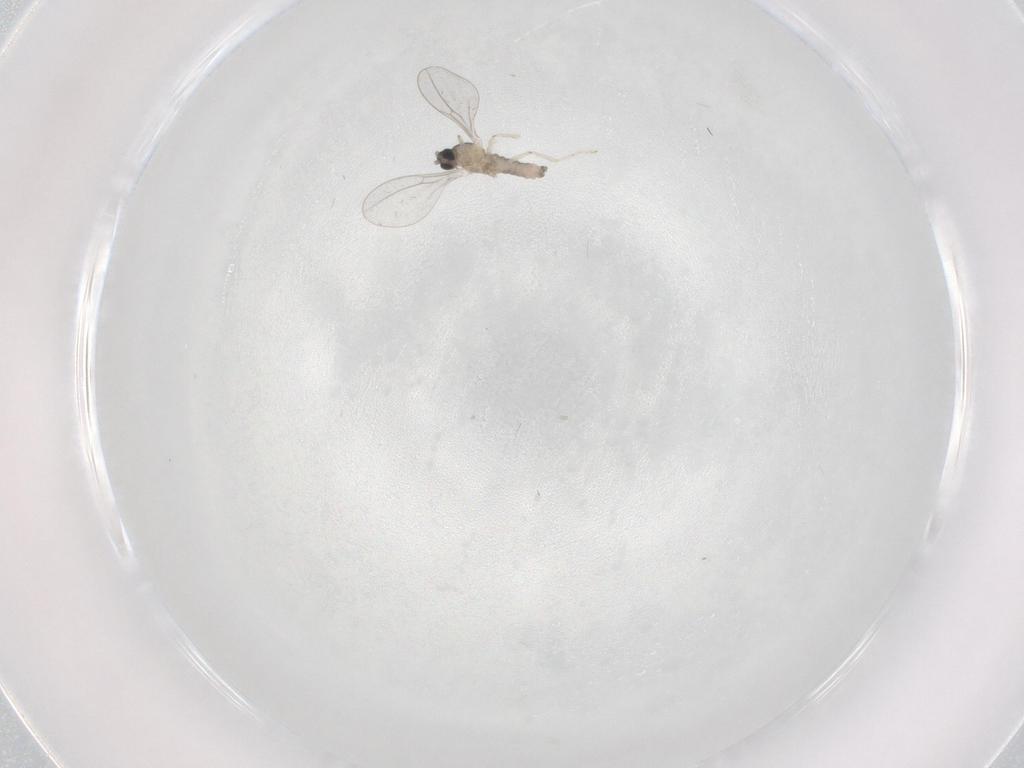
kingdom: Animalia
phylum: Arthropoda
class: Insecta
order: Diptera
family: Cecidomyiidae
